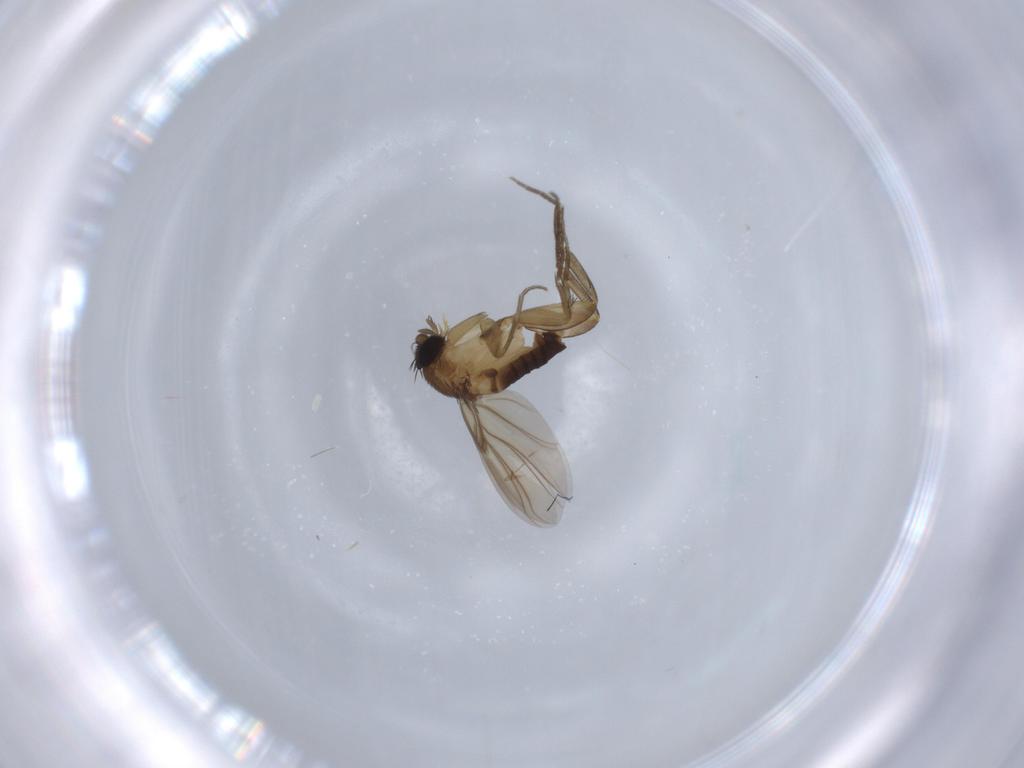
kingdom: Animalia
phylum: Arthropoda
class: Insecta
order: Diptera
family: Phoridae
